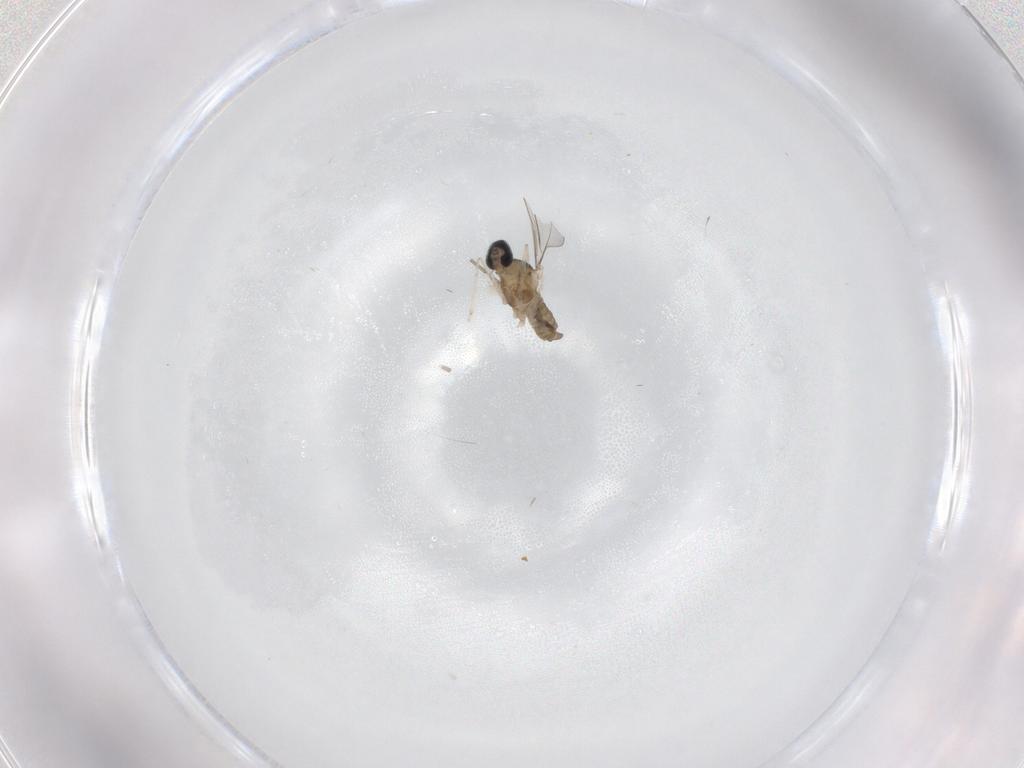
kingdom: Animalia
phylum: Arthropoda
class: Insecta
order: Diptera
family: Cecidomyiidae
